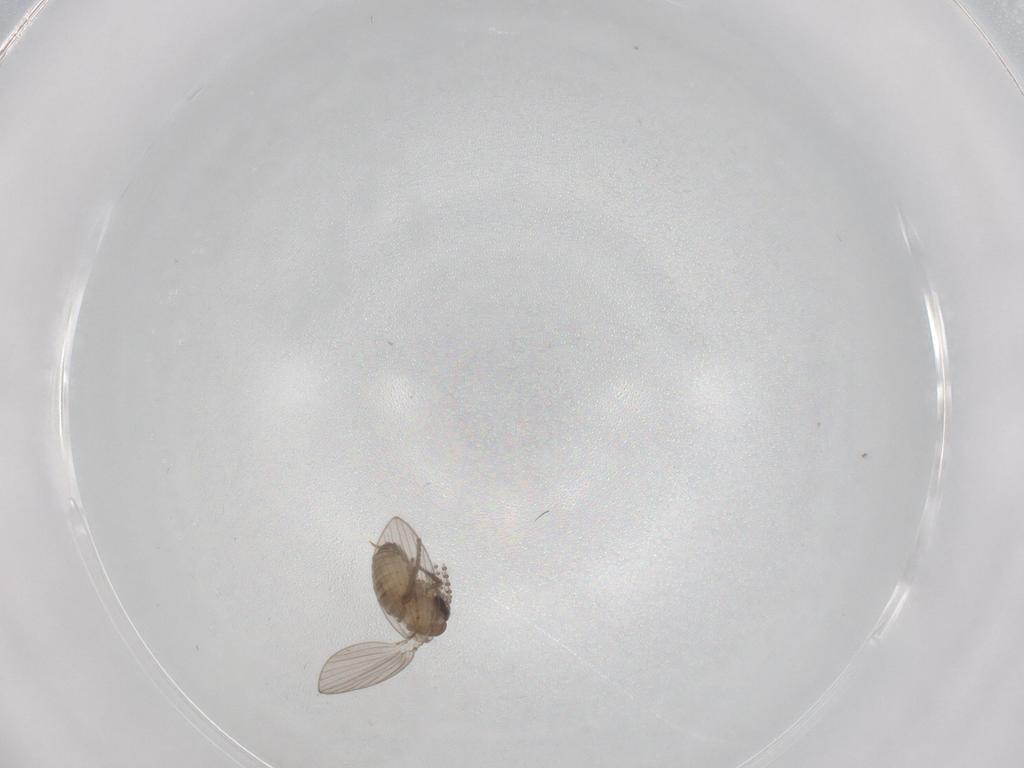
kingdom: Animalia
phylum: Arthropoda
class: Insecta
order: Diptera
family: Psychodidae
